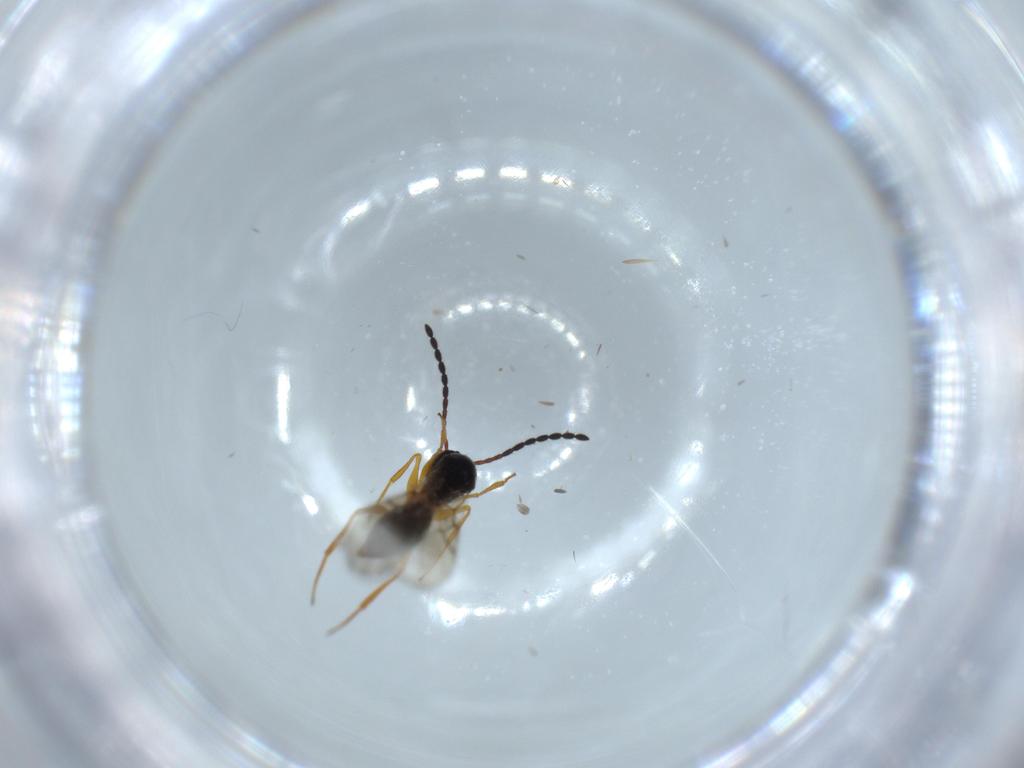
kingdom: Animalia
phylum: Arthropoda
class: Insecta
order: Hymenoptera
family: Figitidae
